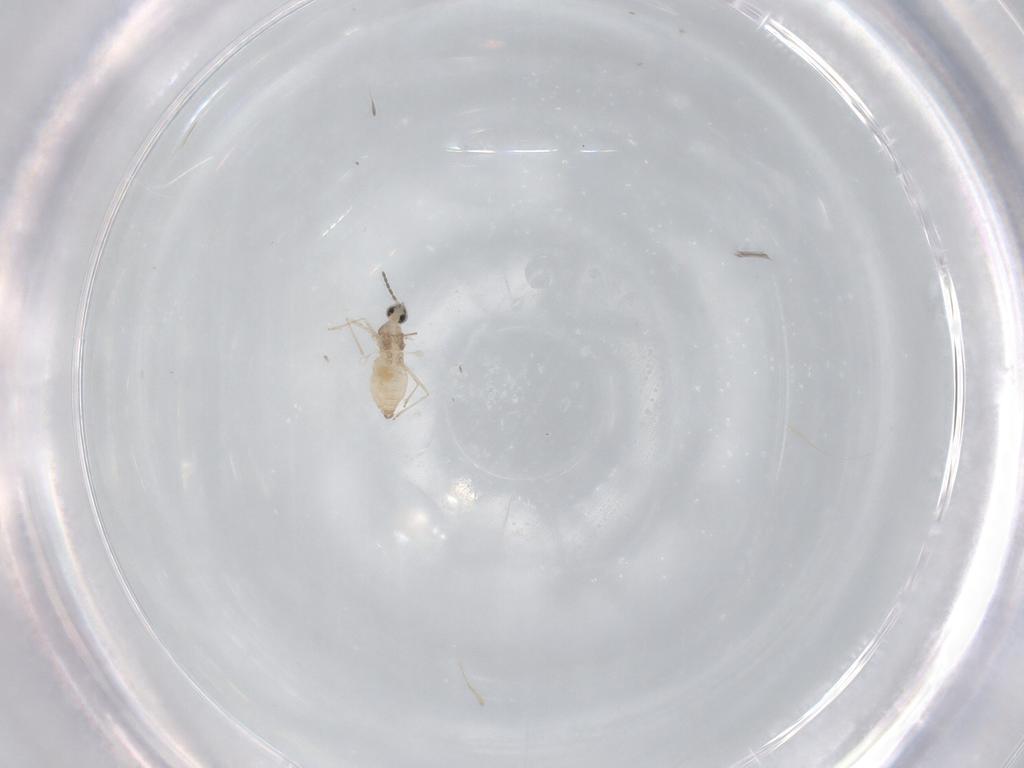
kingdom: Animalia
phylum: Arthropoda
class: Insecta
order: Diptera
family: Cecidomyiidae
